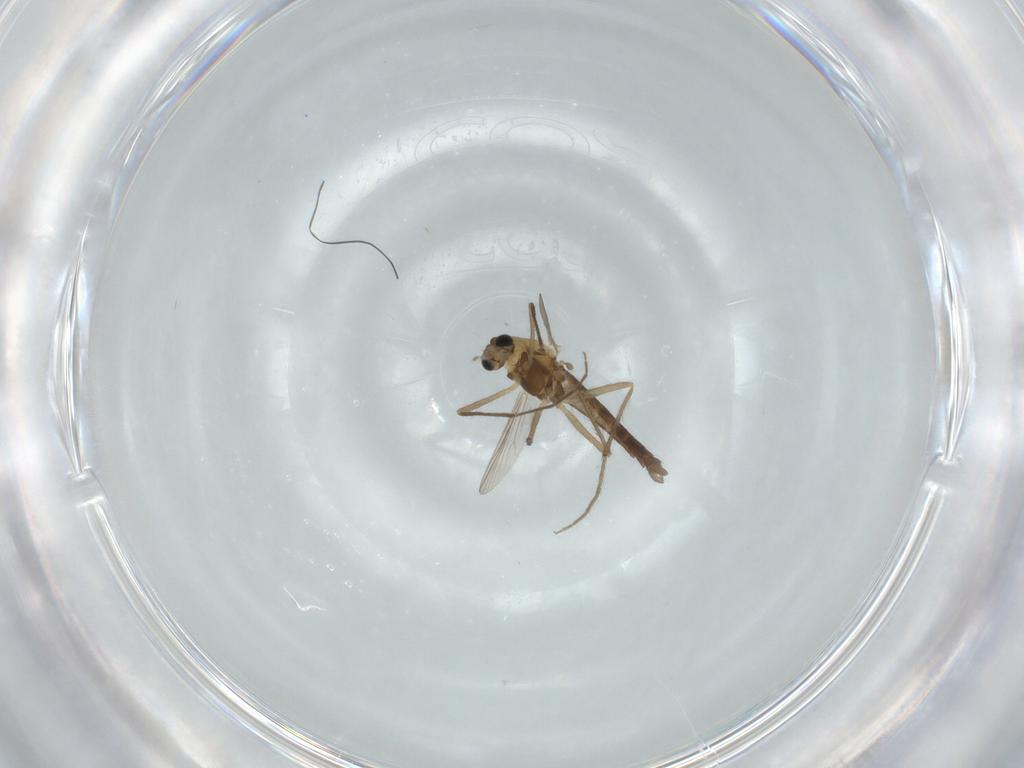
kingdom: Animalia
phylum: Arthropoda
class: Insecta
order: Diptera
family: Chironomidae
